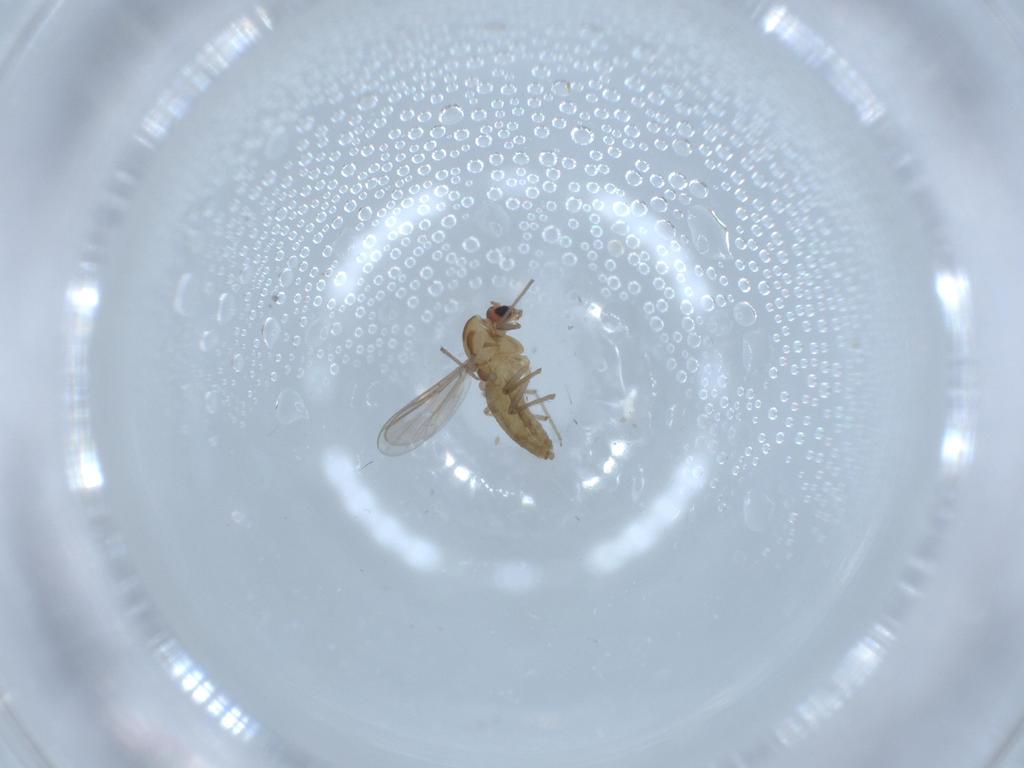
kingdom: Animalia
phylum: Arthropoda
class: Insecta
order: Diptera
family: Cecidomyiidae
